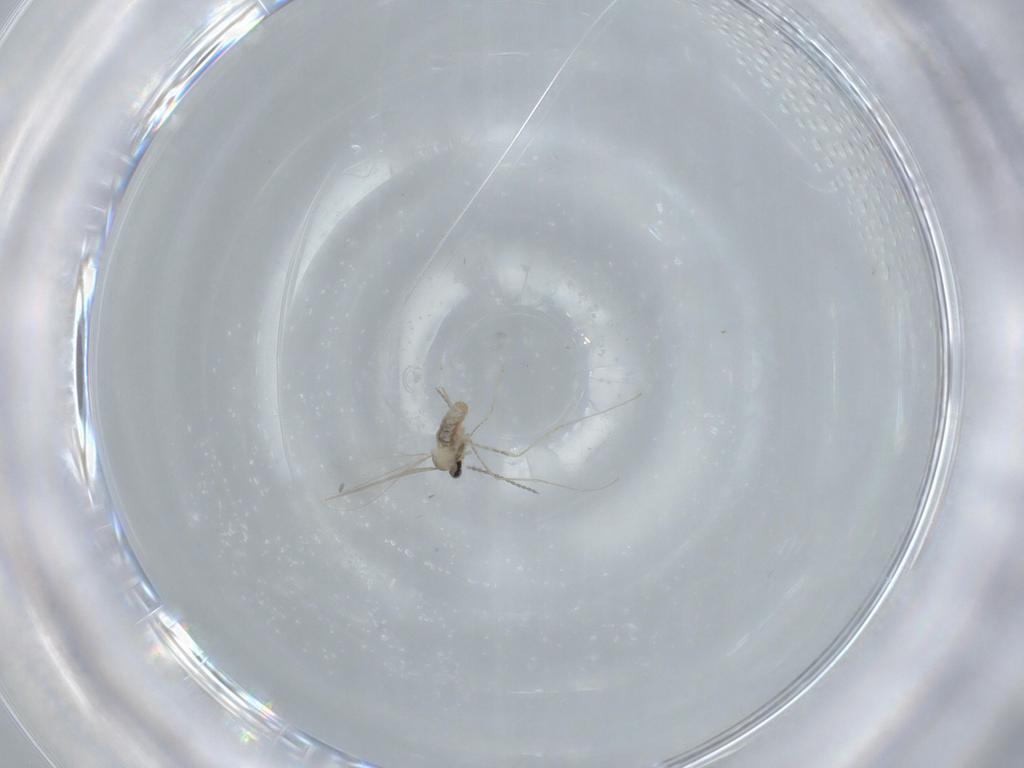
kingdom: Animalia
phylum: Arthropoda
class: Insecta
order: Diptera
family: Cecidomyiidae
